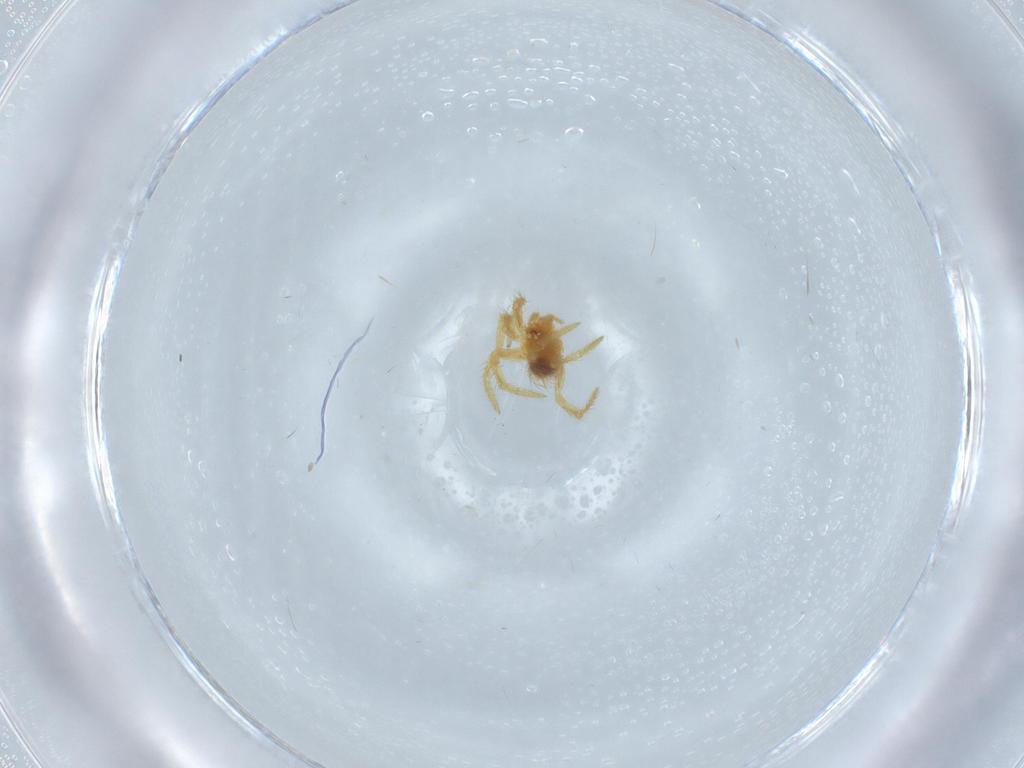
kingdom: Animalia
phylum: Arthropoda
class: Arachnida
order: Araneae
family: Theridiidae
